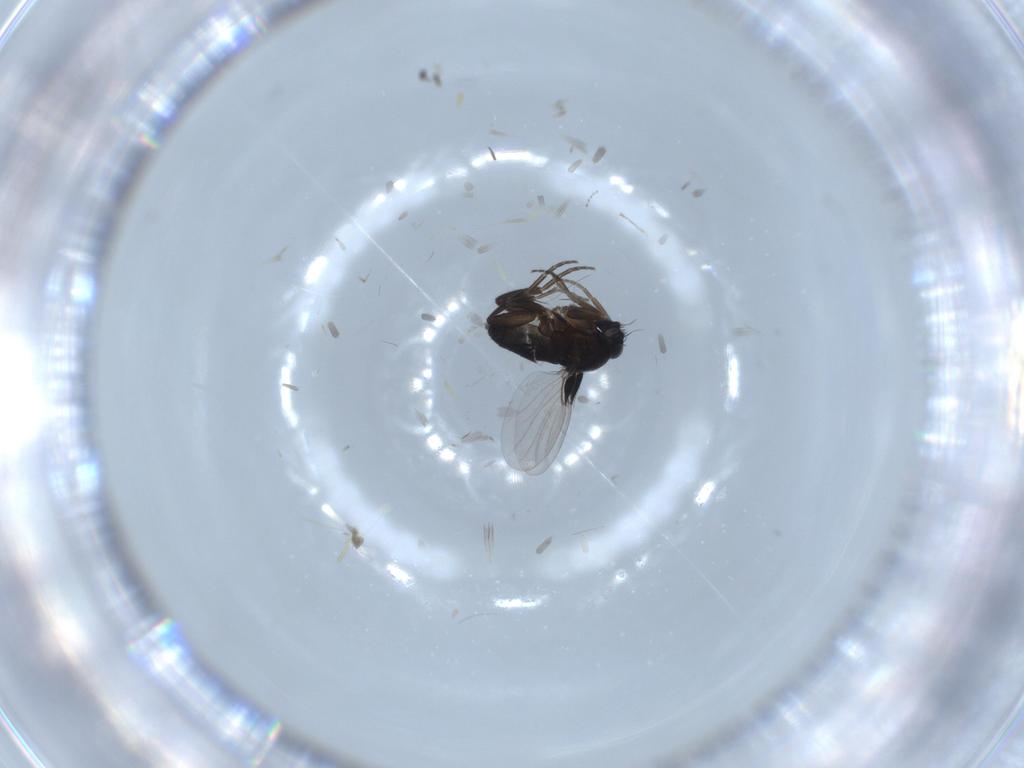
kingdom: Animalia
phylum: Arthropoda
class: Insecta
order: Diptera
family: Phoridae
